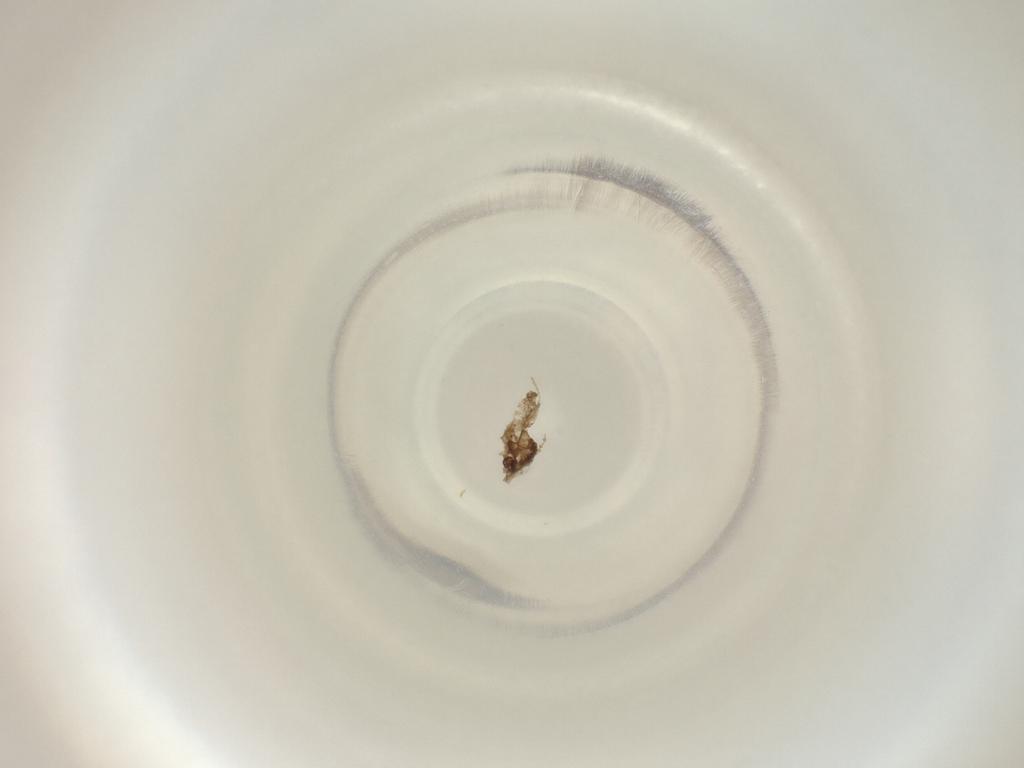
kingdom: Animalia
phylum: Arthropoda
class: Insecta
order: Diptera
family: Cecidomyiidae
